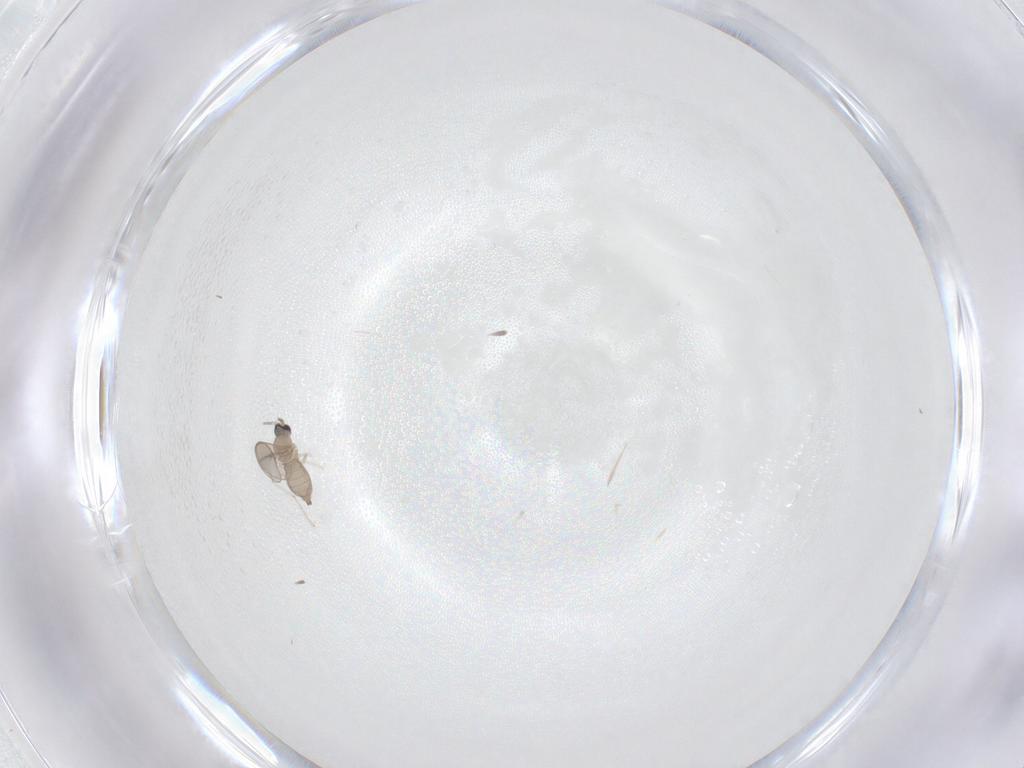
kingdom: Animalia
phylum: Arthropoda
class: Insecta
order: Diptera
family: Cecidomyiidae
